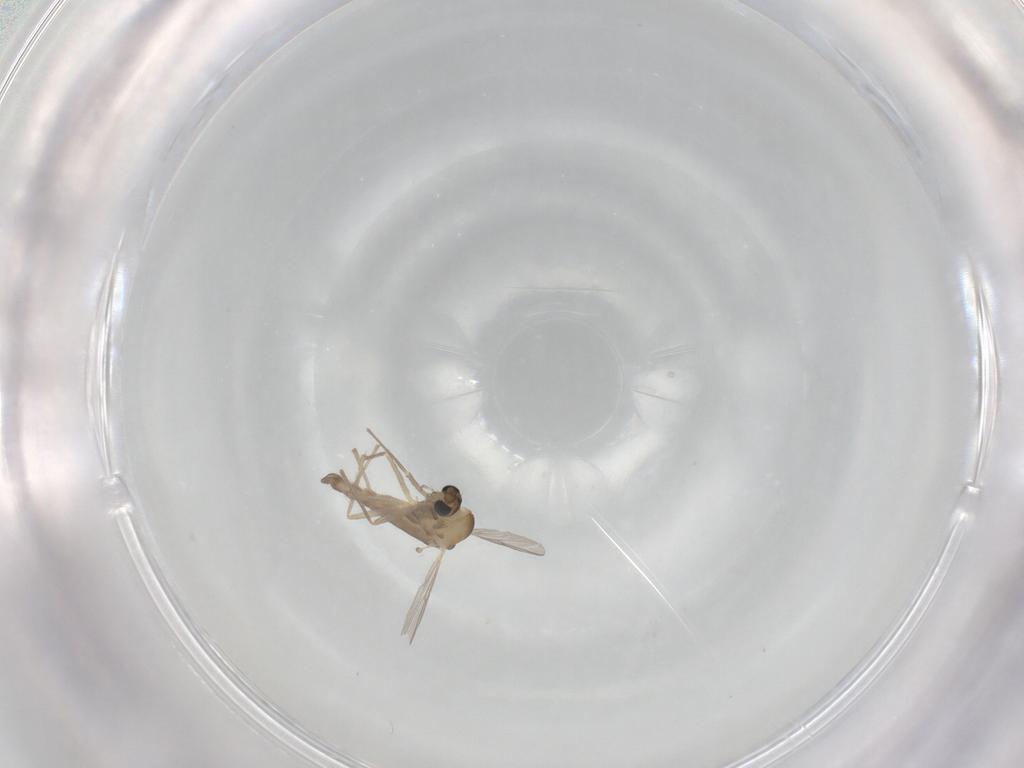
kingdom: Animalia
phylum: Arthropoda
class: Insecta
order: Diptera
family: Chironomidae
